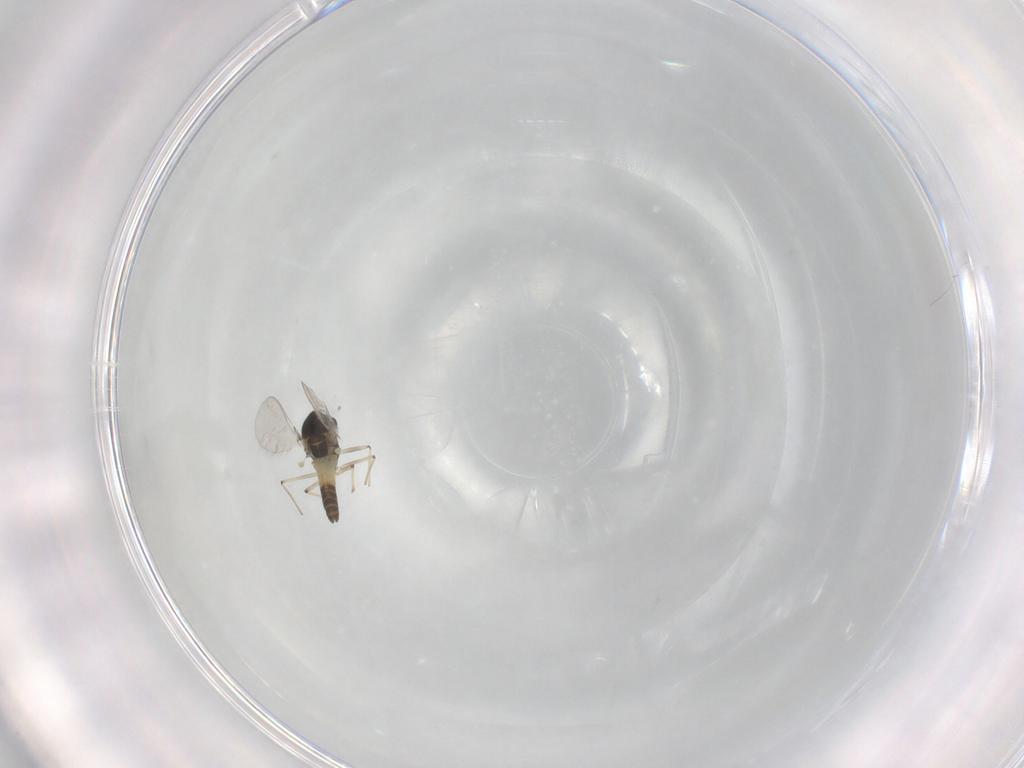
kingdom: Animalia
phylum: Arthropoda
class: Insecta
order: Diptera
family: Chironomidae
